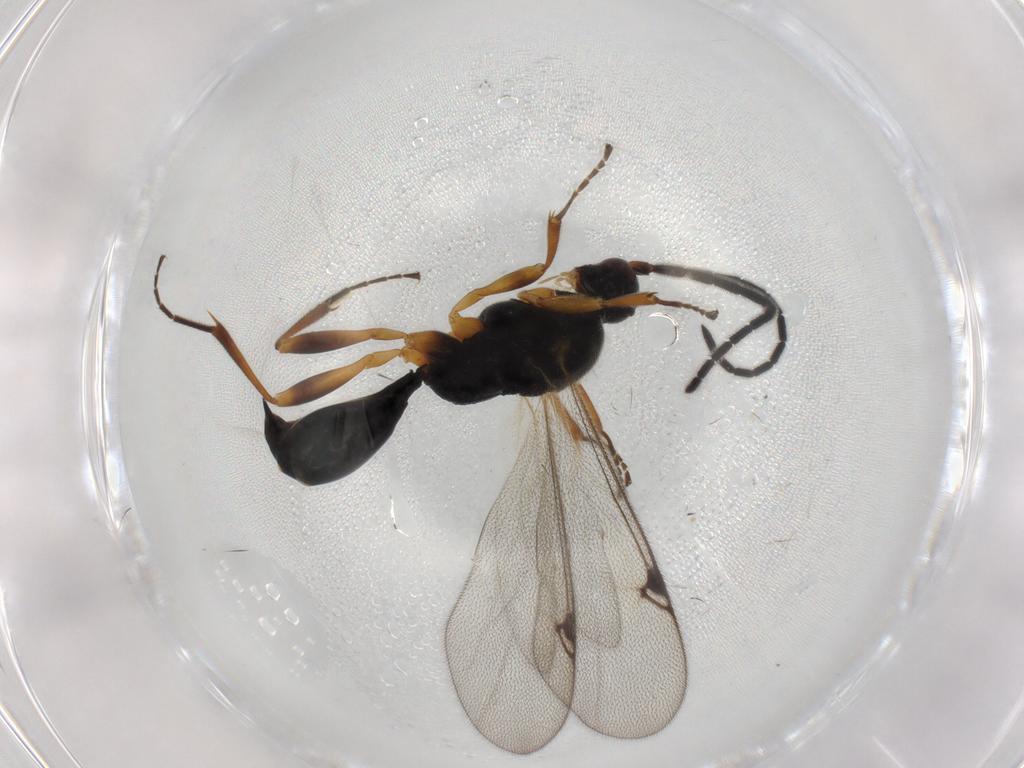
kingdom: Animalia
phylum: Arthropoda
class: Insecta
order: Hymenoptera
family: Proctotrupidae
